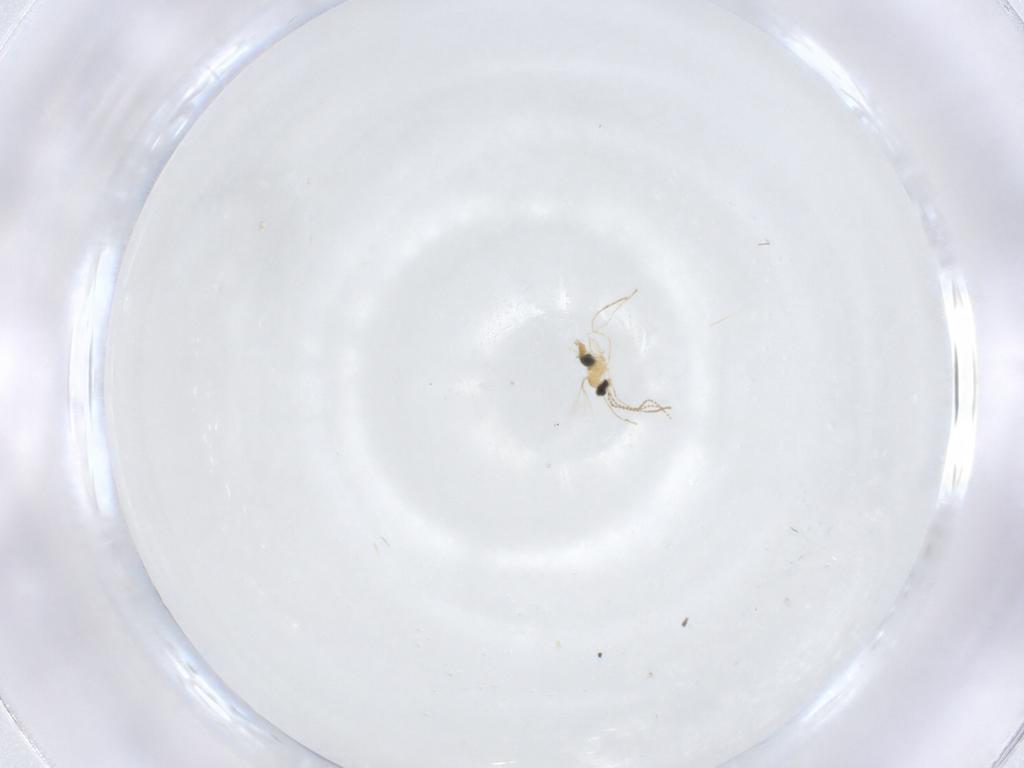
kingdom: Animalia
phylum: Arthropoda
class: Insecta
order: Diptera
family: Cecidomyiidae
